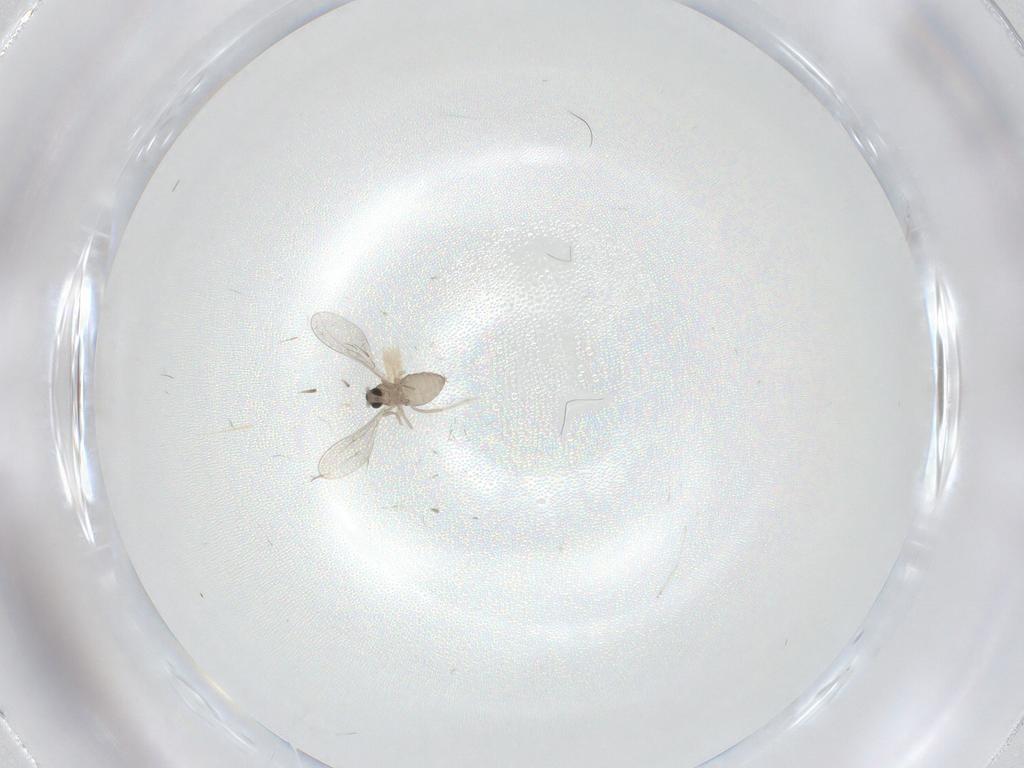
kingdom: Animalia
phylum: Arthropoda
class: Insecta
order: Diptera
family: Cecidomyiidae
